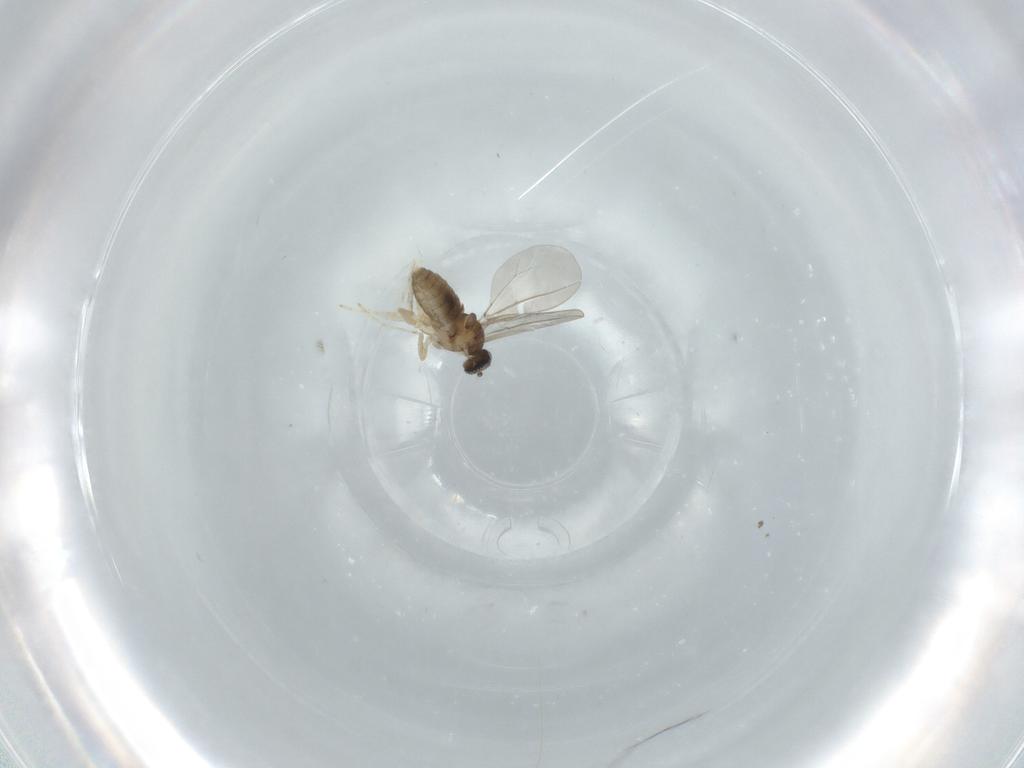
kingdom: Animalia
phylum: Arthropoda
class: Insecta
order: Diptera
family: Cecidomyiidae
